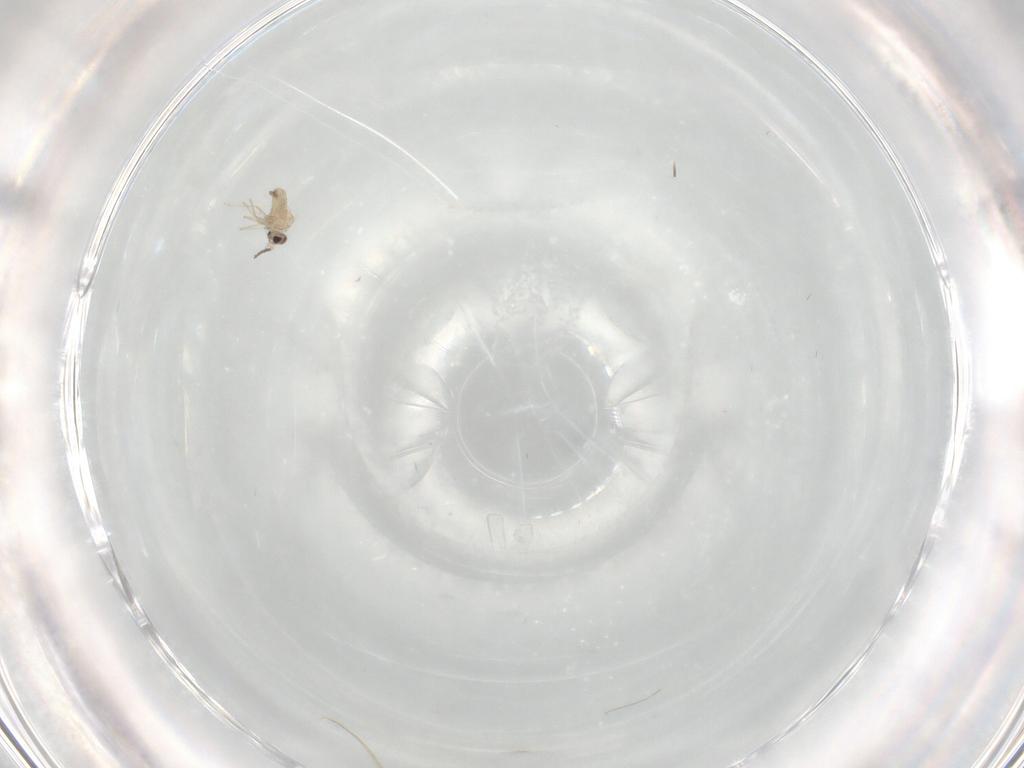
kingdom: Animalia
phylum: Arthropoda
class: Insecta
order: Diptera
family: Cecidomyiidae
